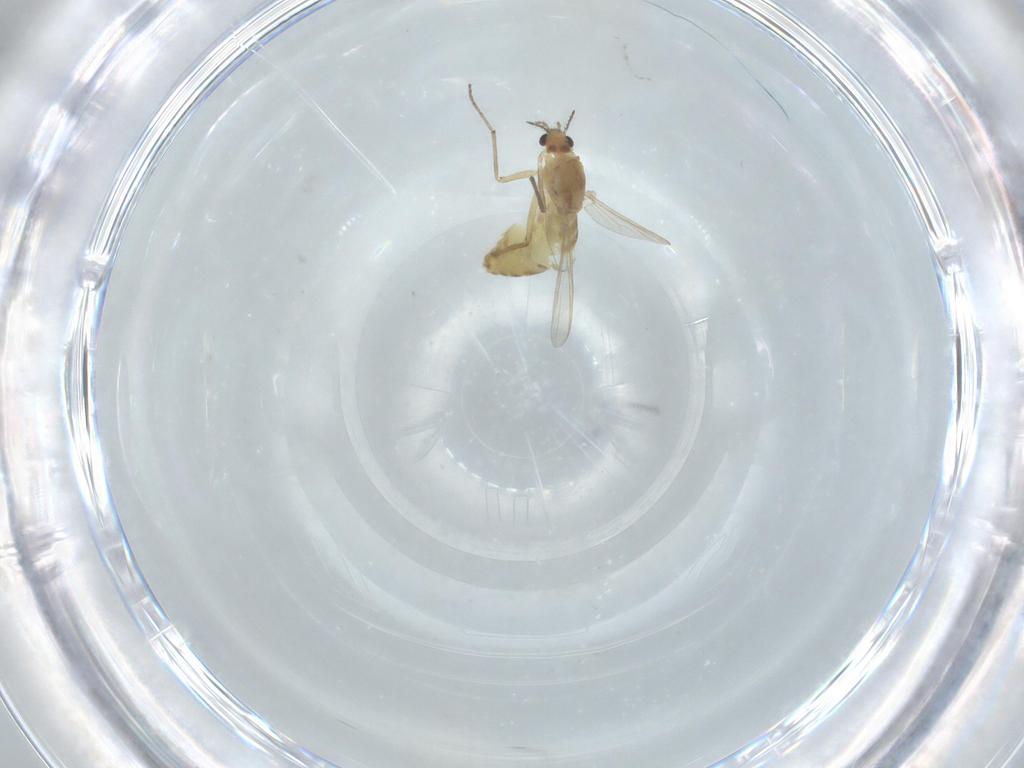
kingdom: Animalia
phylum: Arthropoda
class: Insecta
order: Diptera
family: Chironomidae
